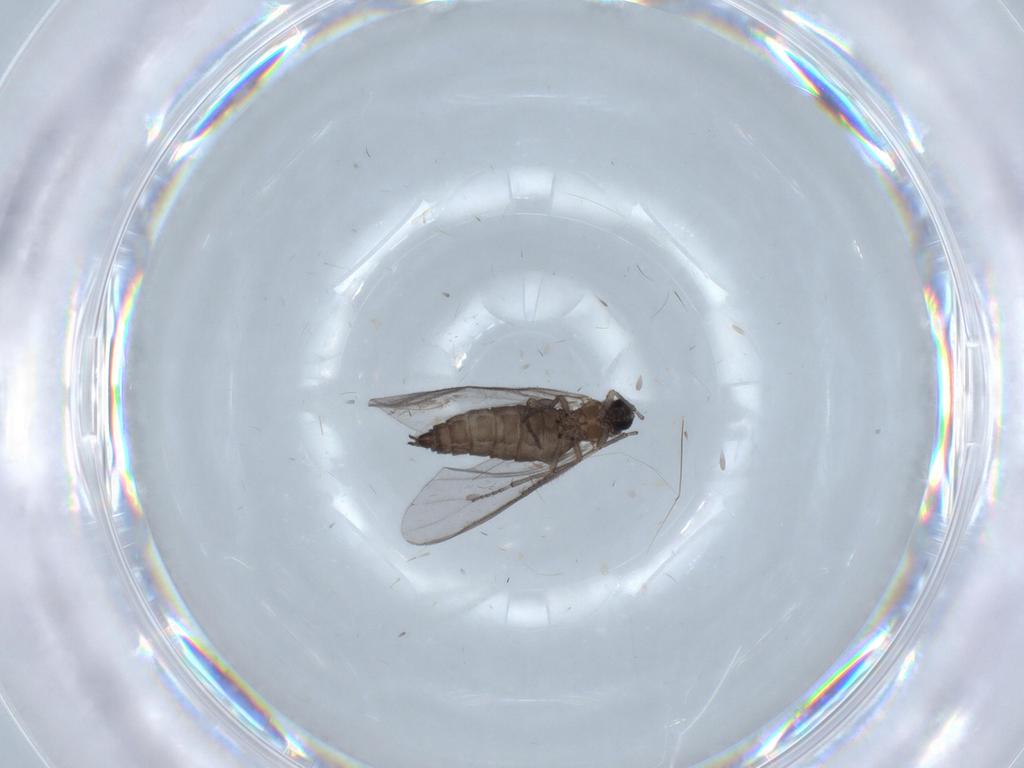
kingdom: Animalia
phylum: Arthropoda
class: Insecta
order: Diptera
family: Sciaridae
